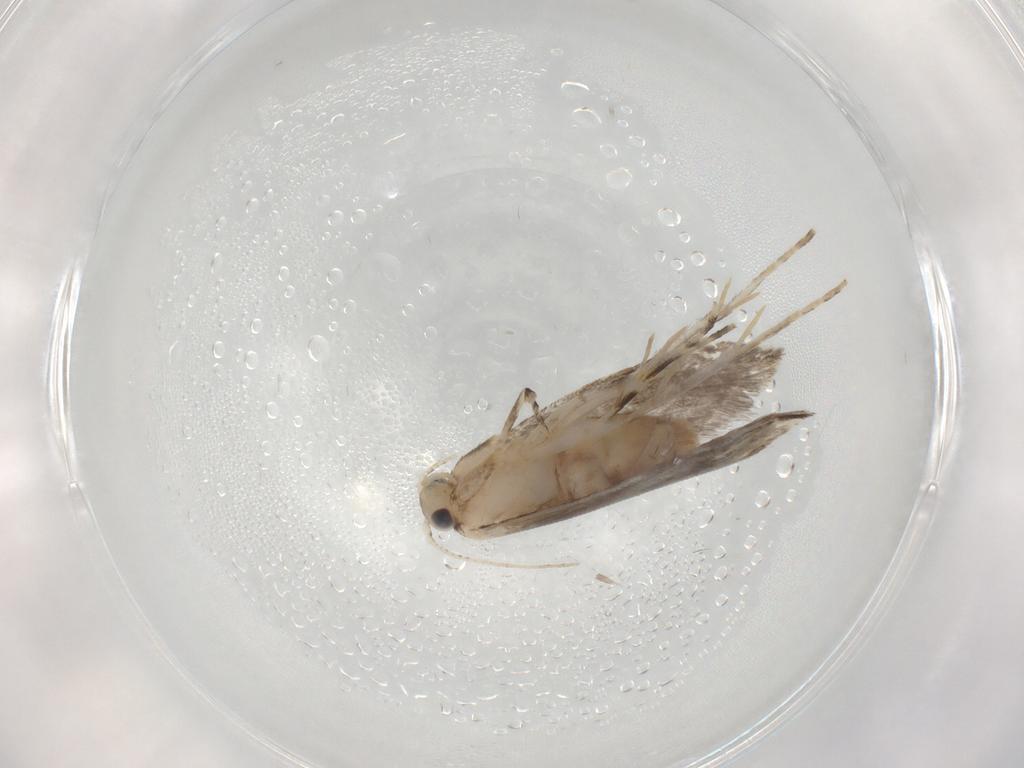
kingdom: Animalia
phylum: Arthropoda
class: Insecta
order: Lepidoptera
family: Tineidae
